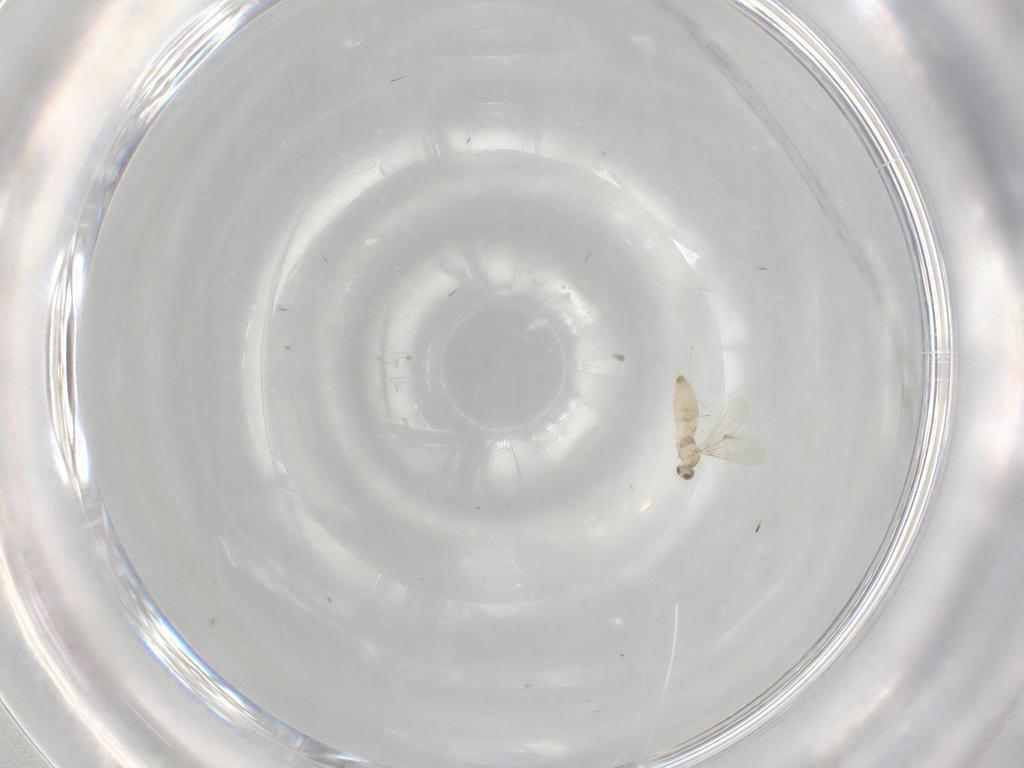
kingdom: Animalia
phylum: Arthropoda
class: Insecta
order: Diptera
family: Cecidomyiidae
